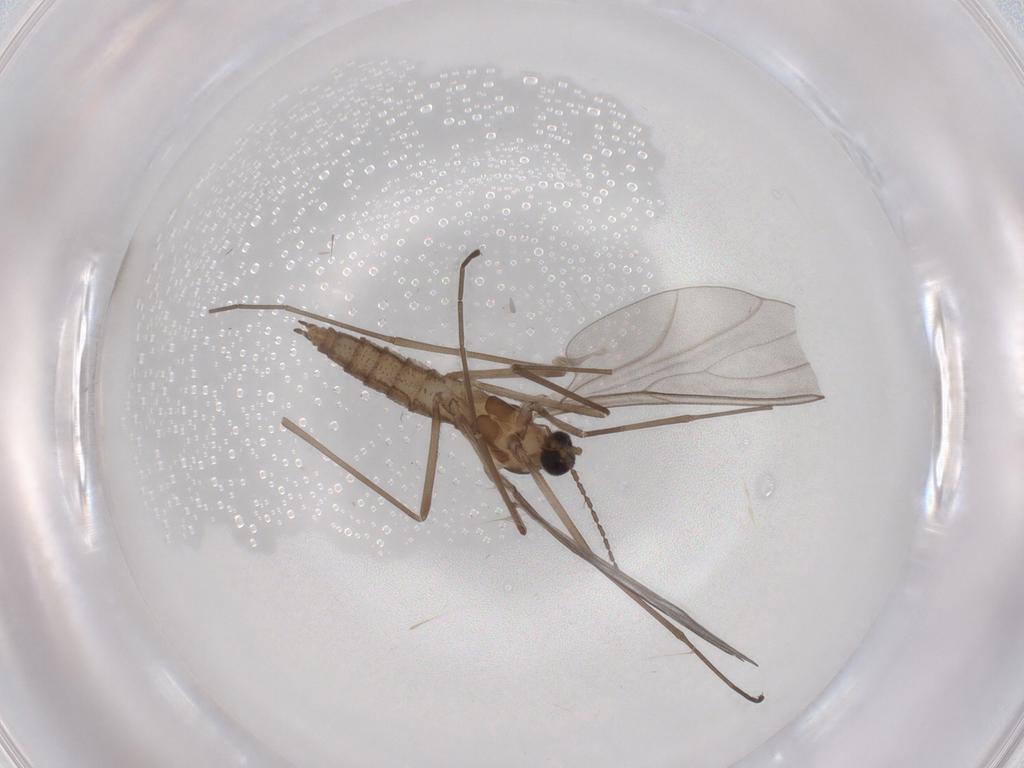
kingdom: Animalia
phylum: Arthropoda
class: Insecta
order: Diptera
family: Cecidomyiidae
